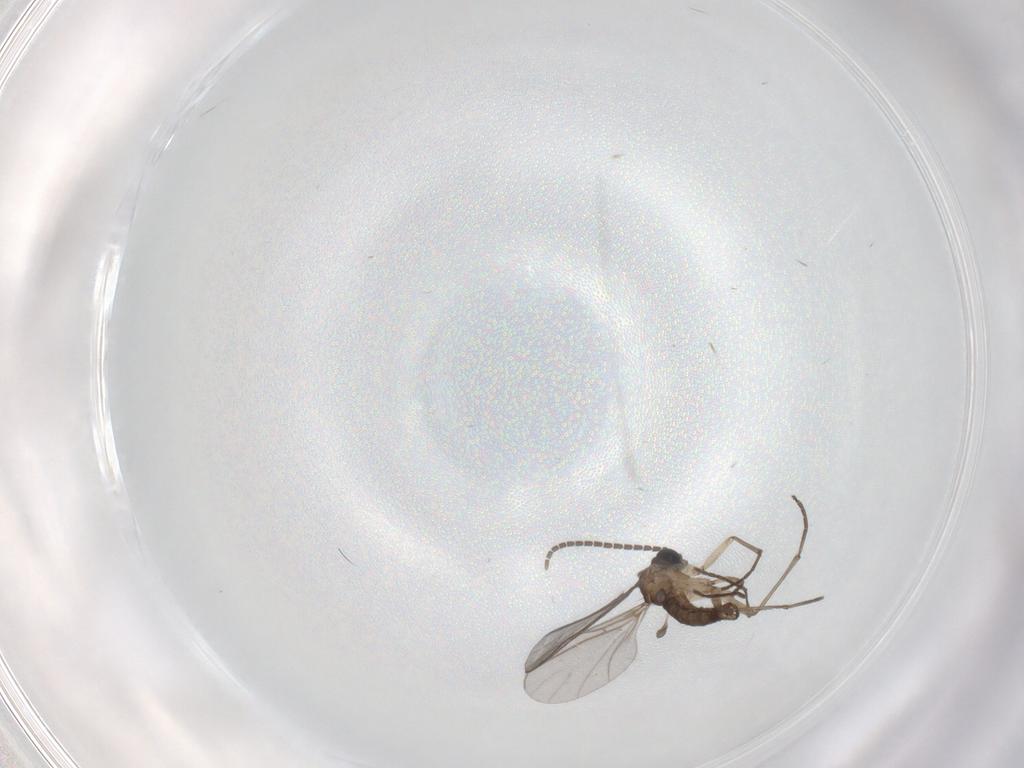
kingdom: Animalia
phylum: Arthropoda
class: Insecta
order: Diptera
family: Sciaridae
